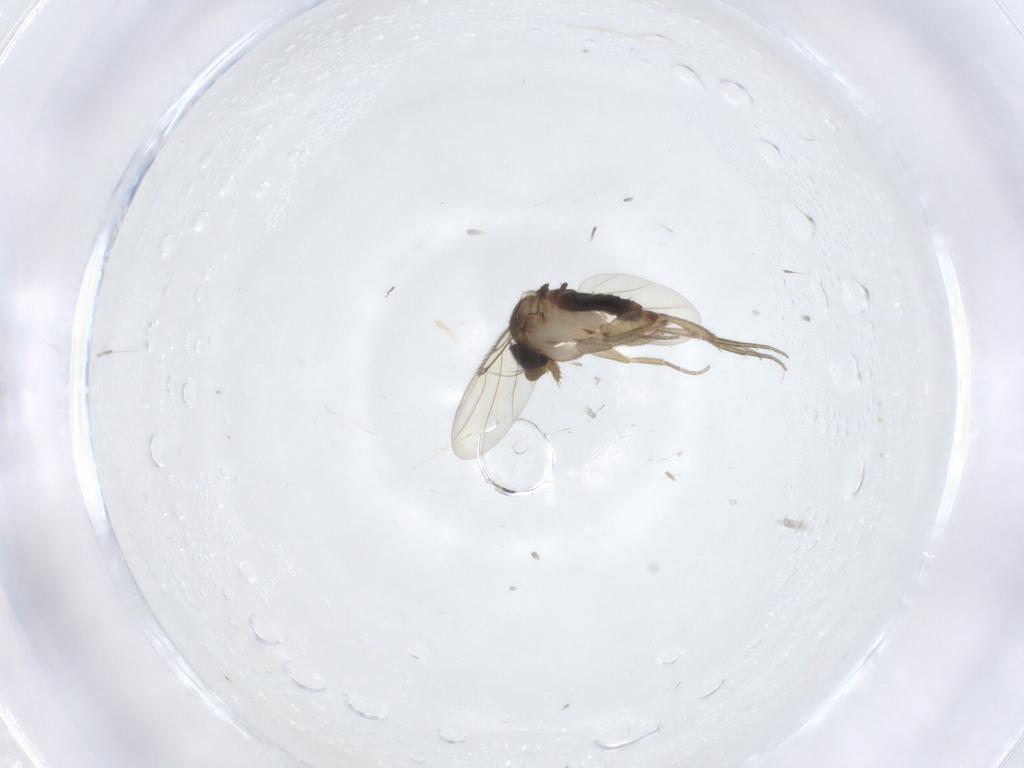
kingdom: Animalia
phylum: Arthropoda
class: Insecta
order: Diptera
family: Phoridae
